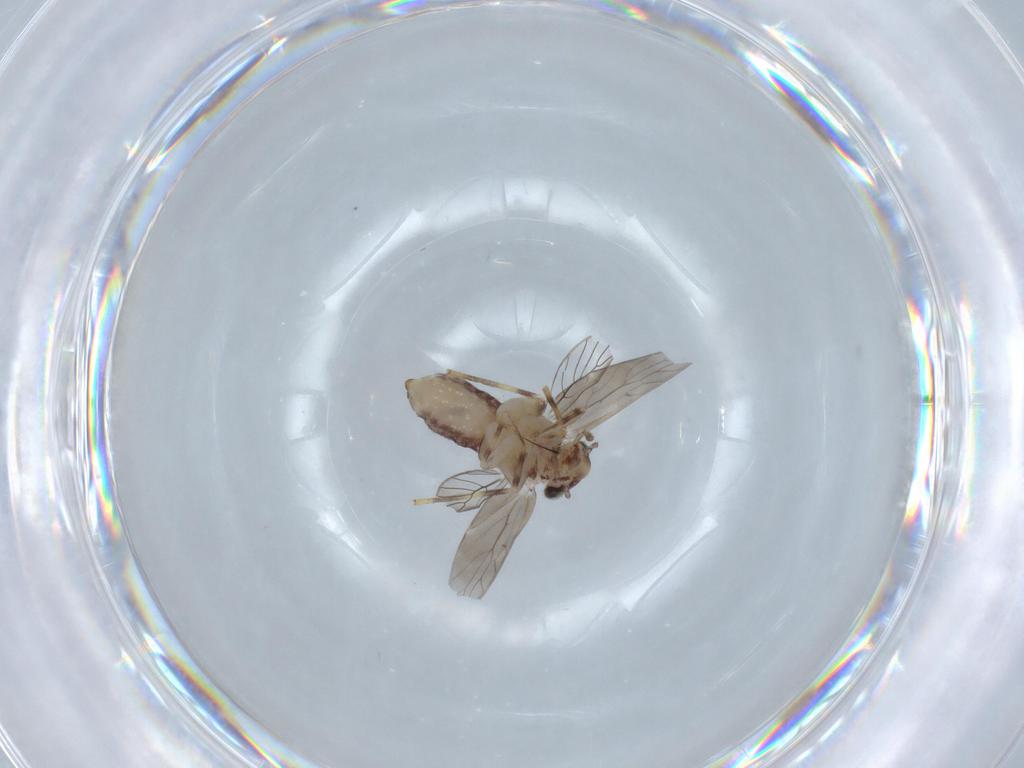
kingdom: Animalia
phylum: Arthropoda
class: Insecta
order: Psocodea
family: Lepidopsocidae
